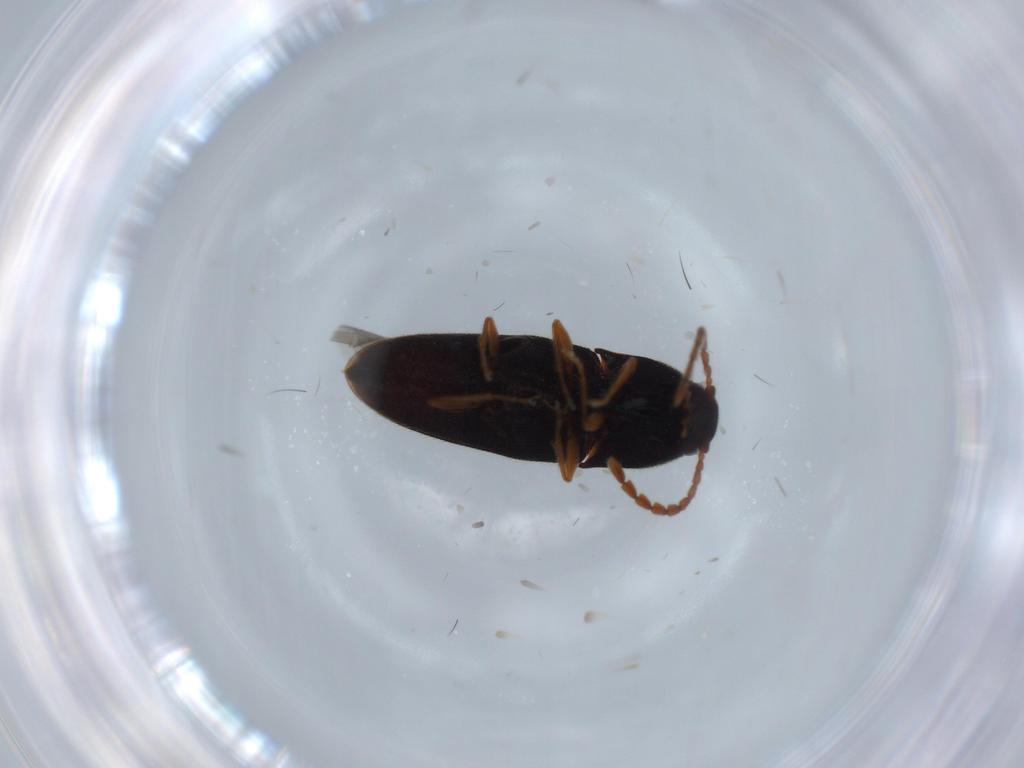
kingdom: Animalia
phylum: Arthropoda
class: Insecta
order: Coleoptera
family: Elateridae
